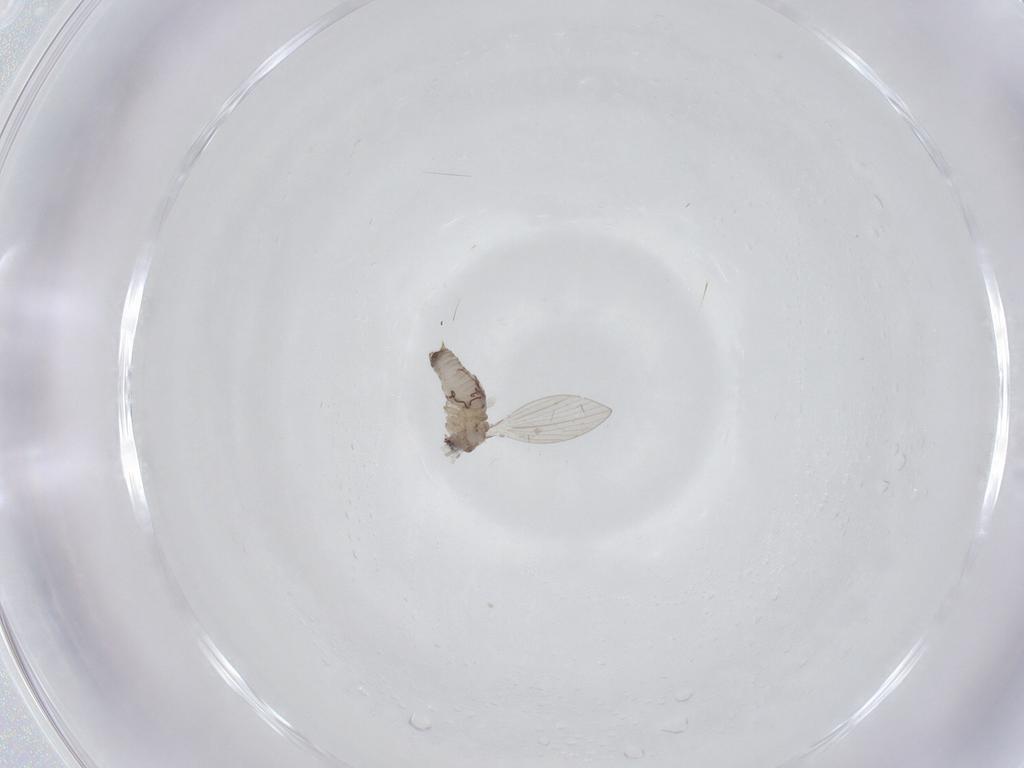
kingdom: Animalia
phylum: Arthropoda
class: Insecta
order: Diptera
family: Psychodidae
